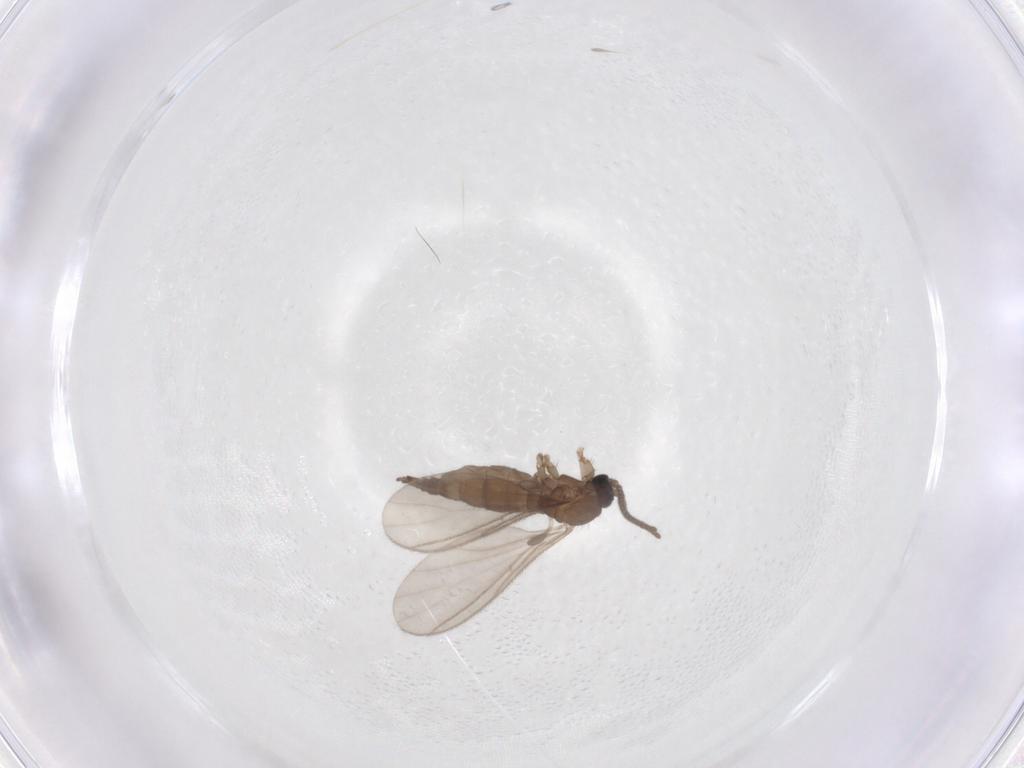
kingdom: Animalia
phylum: Arthropoda
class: Insecta
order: Diptera
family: Sciaridae
